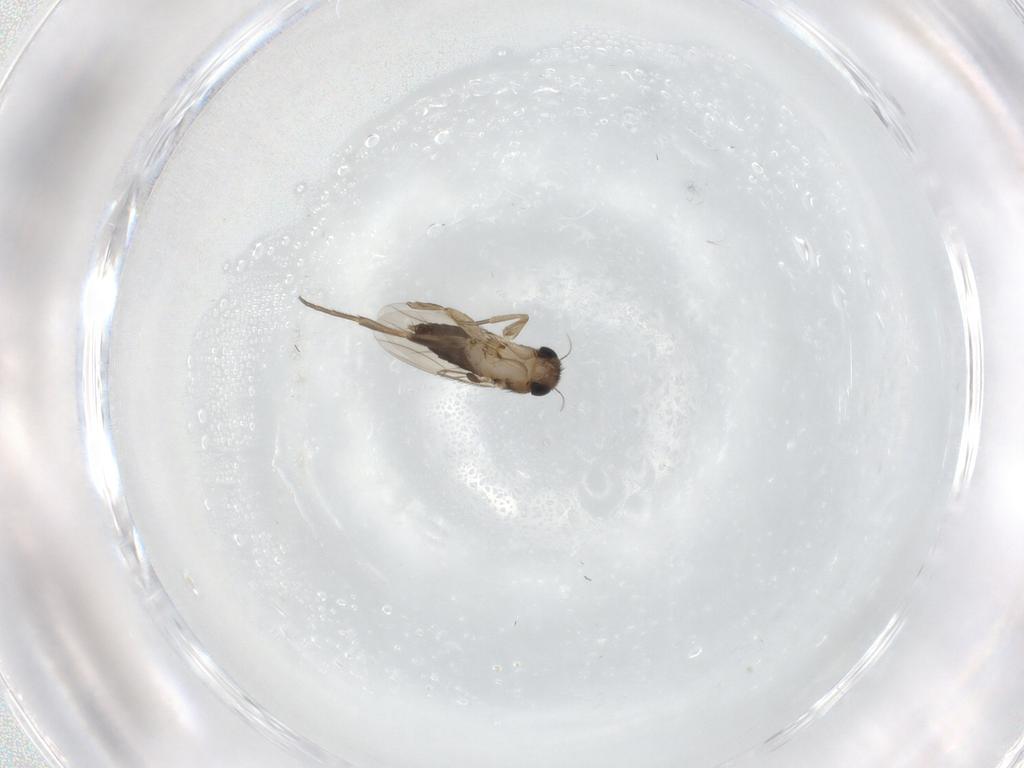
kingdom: Animalia
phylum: Arthropoda
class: Insecta
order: Diptera
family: Phoridae
